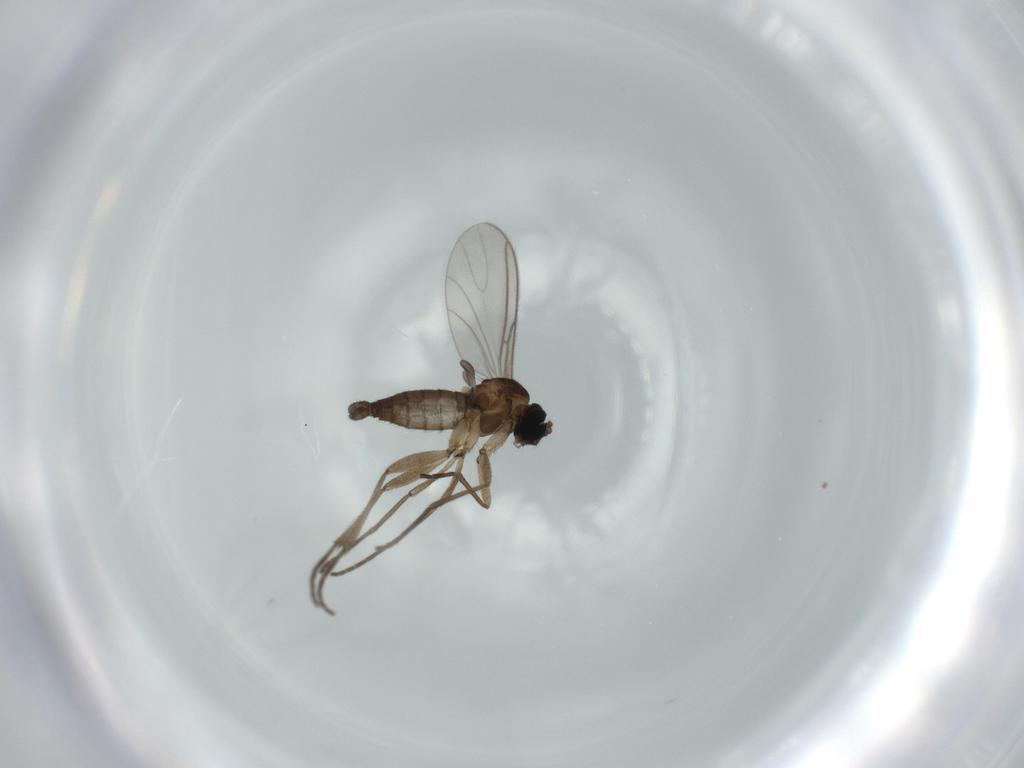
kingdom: Animalia
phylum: Arthropoda
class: Insecta
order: Diptera
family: Sciaridae
